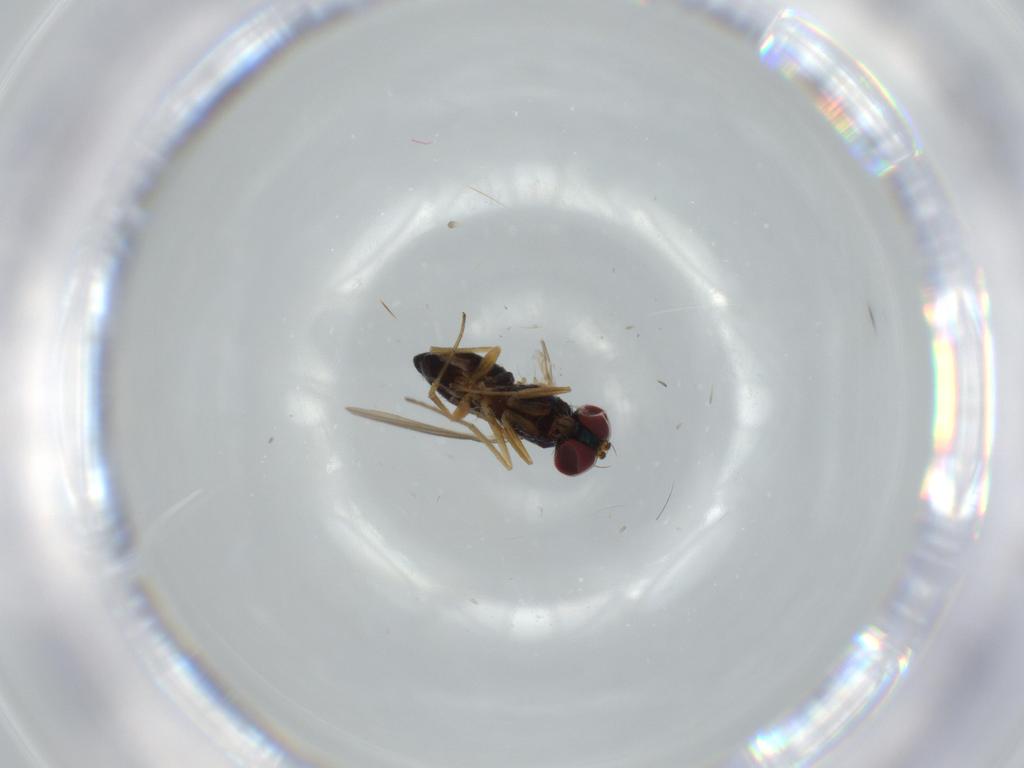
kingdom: Animalia
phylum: Arthropoda
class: Insecta
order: Diptera
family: Dolichopodidae
